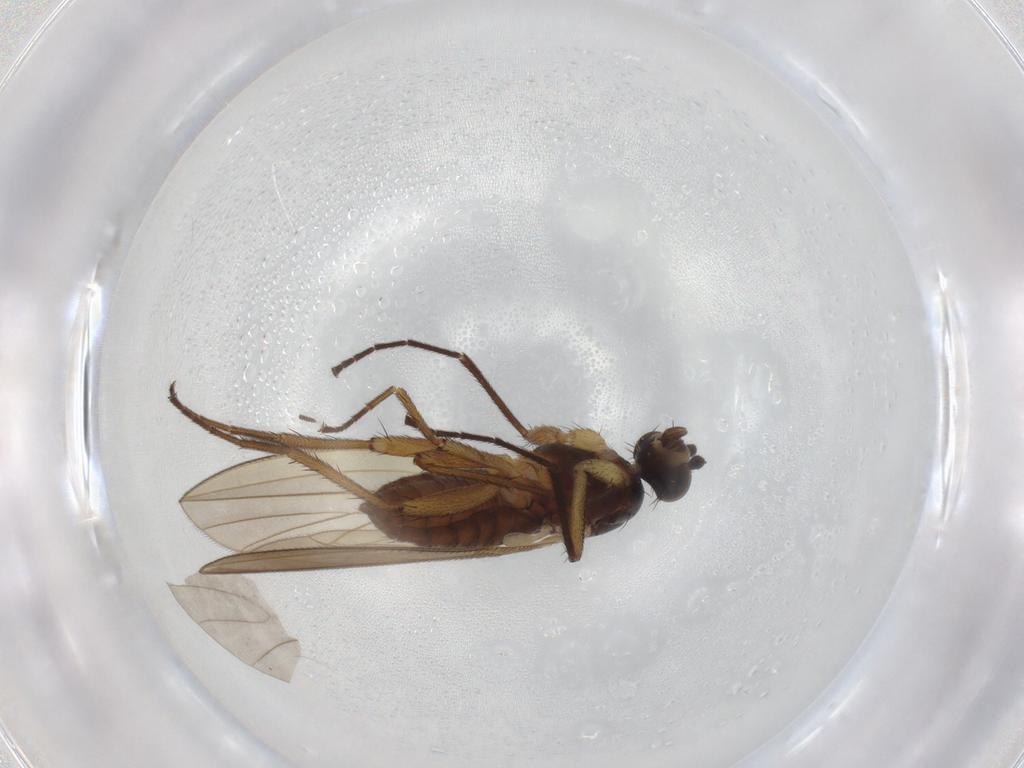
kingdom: Animalia
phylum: Arthropoda
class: Insecta
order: Diptera
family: Lonchopteridae
